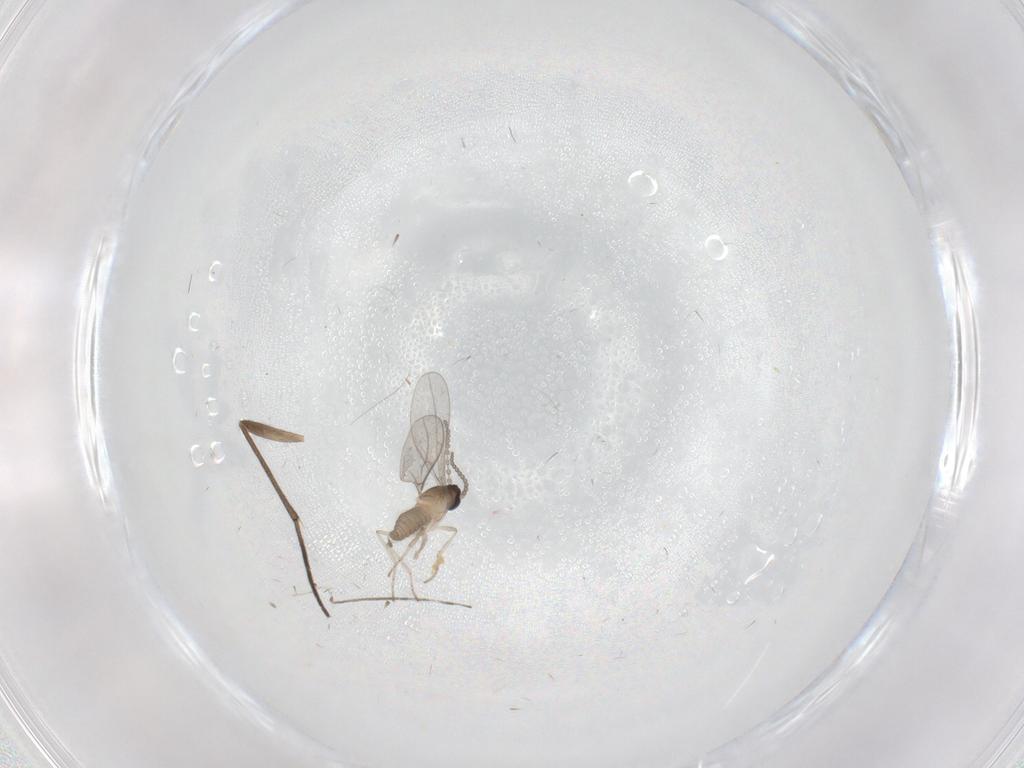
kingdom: Animalia
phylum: Arthropoda
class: Insecta
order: Diptera
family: Cecidomyiidae
